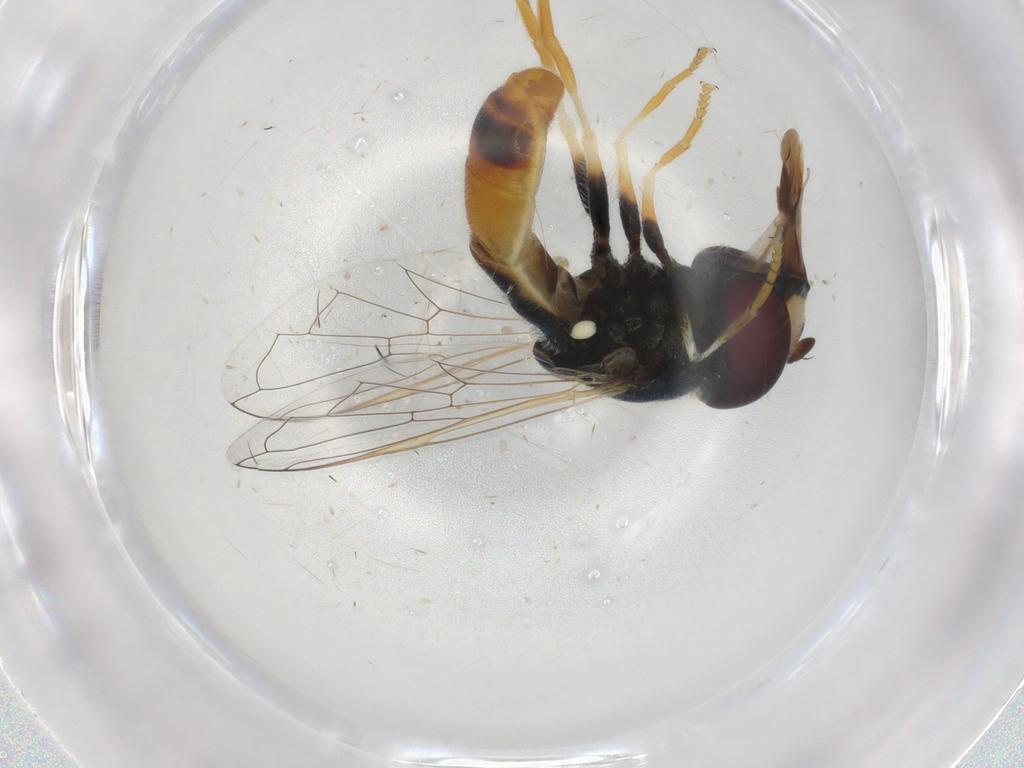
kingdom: Animalia
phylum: Arthropoda
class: Insecta
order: Diptera
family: Syrphidae
